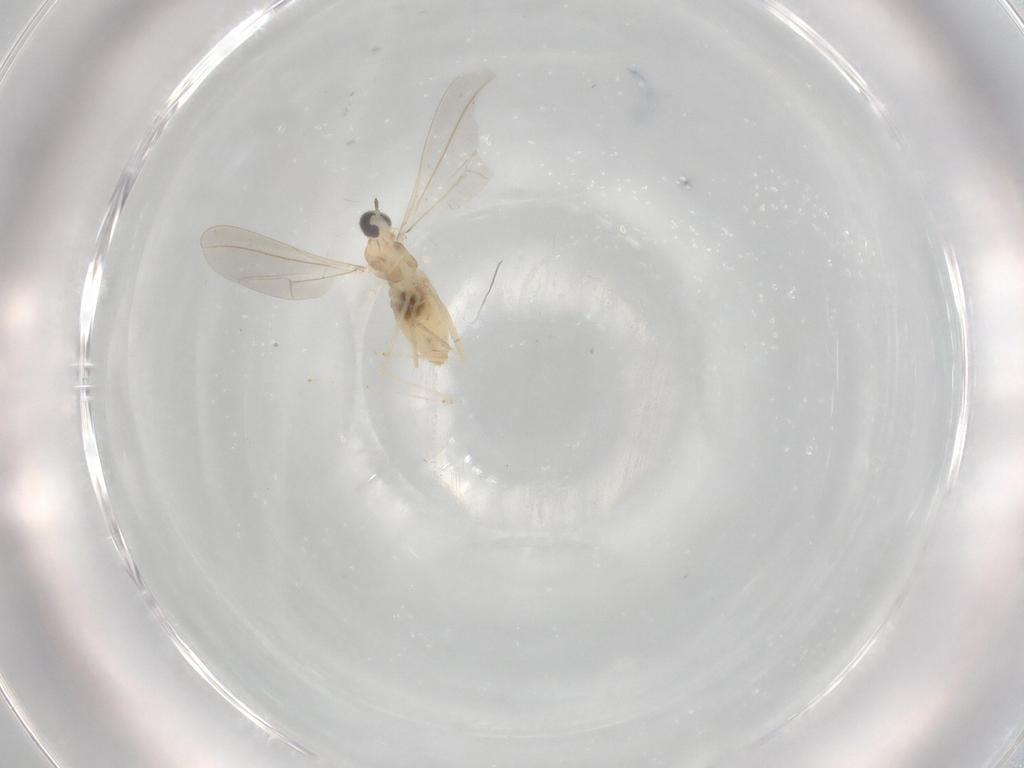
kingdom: Animalia
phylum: Arthropoda
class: Insecta
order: Diptera
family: Cecidomyiidae
